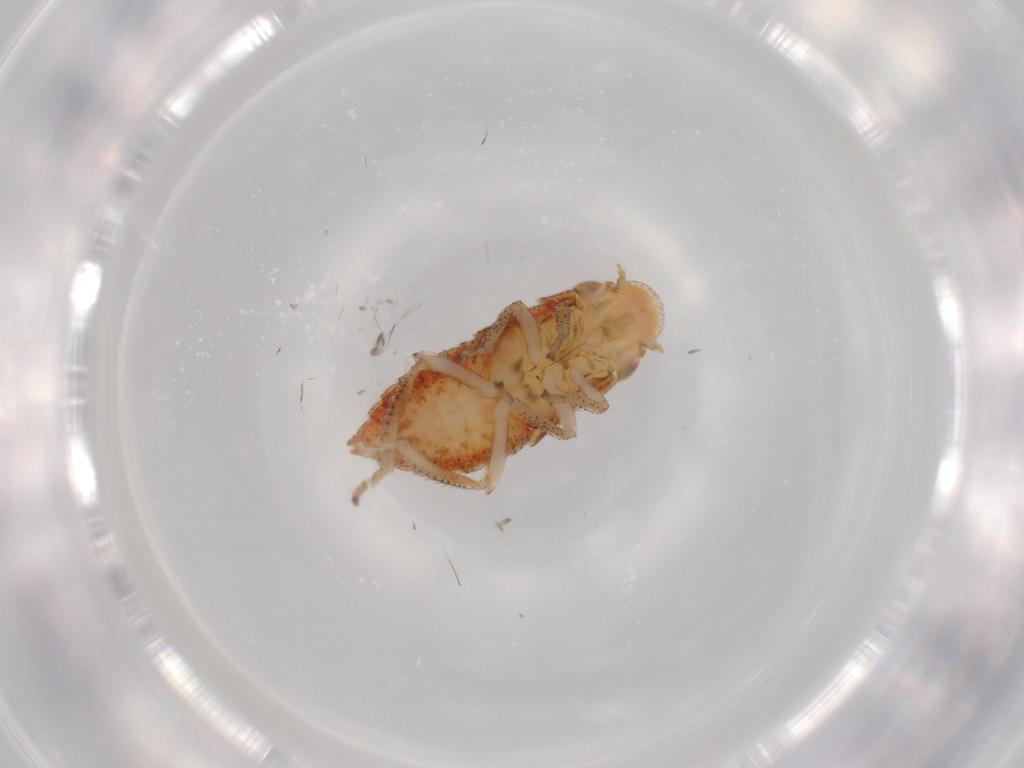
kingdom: Animalia
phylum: Arthropoda
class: Insecta
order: Hemiptera
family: Cicadellidae
